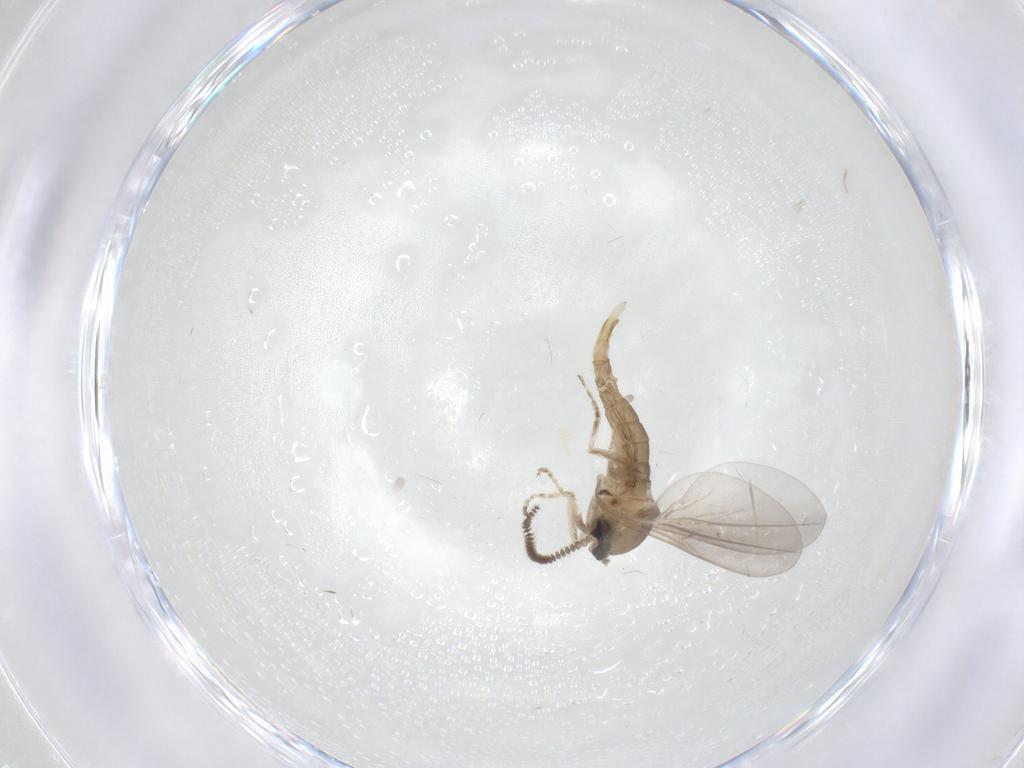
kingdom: Animalia
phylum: Arthropoda
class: Insecta
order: Diptera
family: Cecidomyiidae
